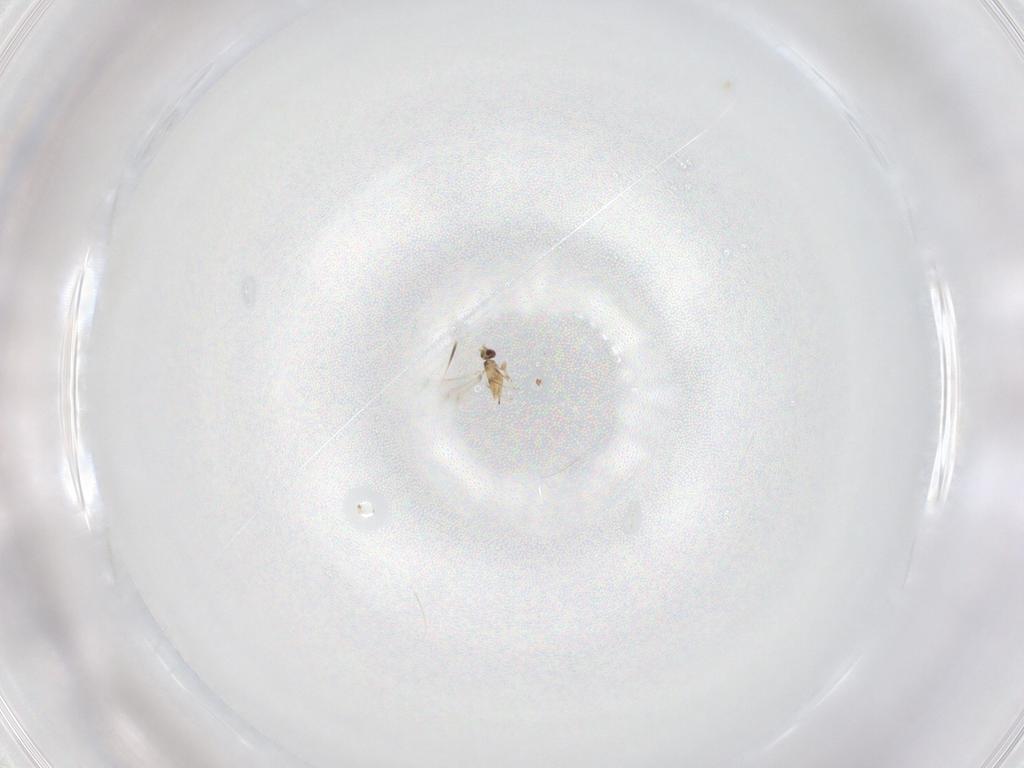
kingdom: Animalia
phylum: Arthropoda
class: Insecta
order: Hymenoptera
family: Mymaridae
